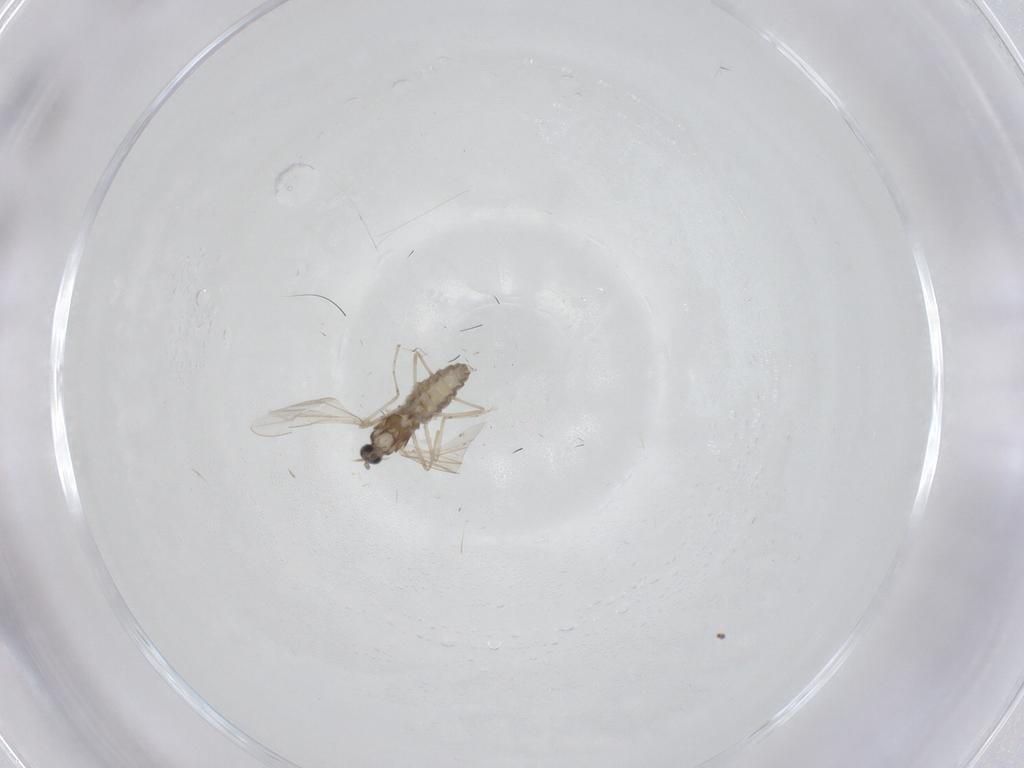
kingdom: Animalia
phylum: Arthropoda
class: Insecta
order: Diptera
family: Cecidomyiidae
